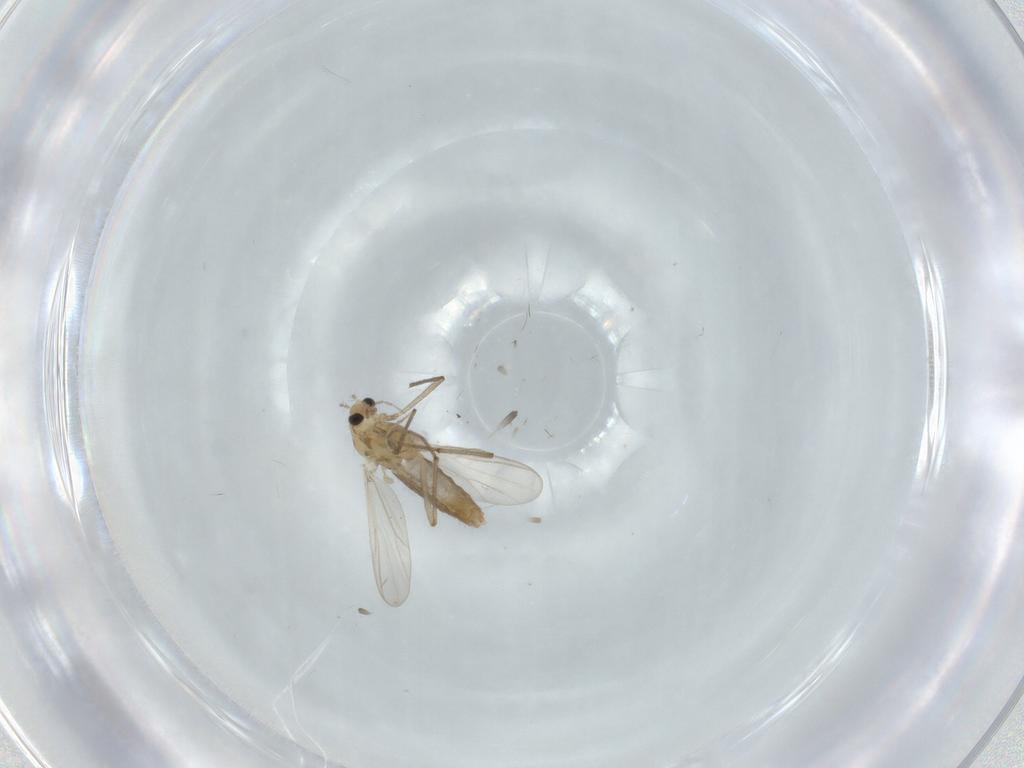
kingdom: Animalia
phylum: Arthropoda
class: Insecta
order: Diptera
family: Chironomidae
